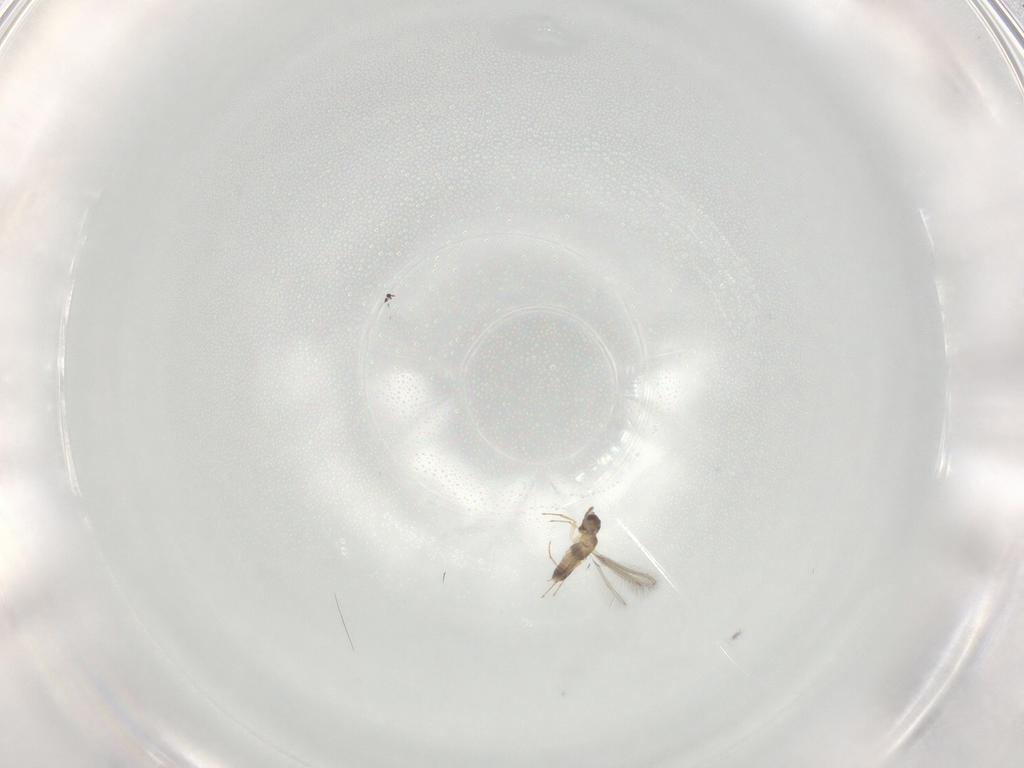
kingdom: Animalia
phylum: Arthropoda
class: Insecta
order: Hymenoptera
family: Mymaridae
